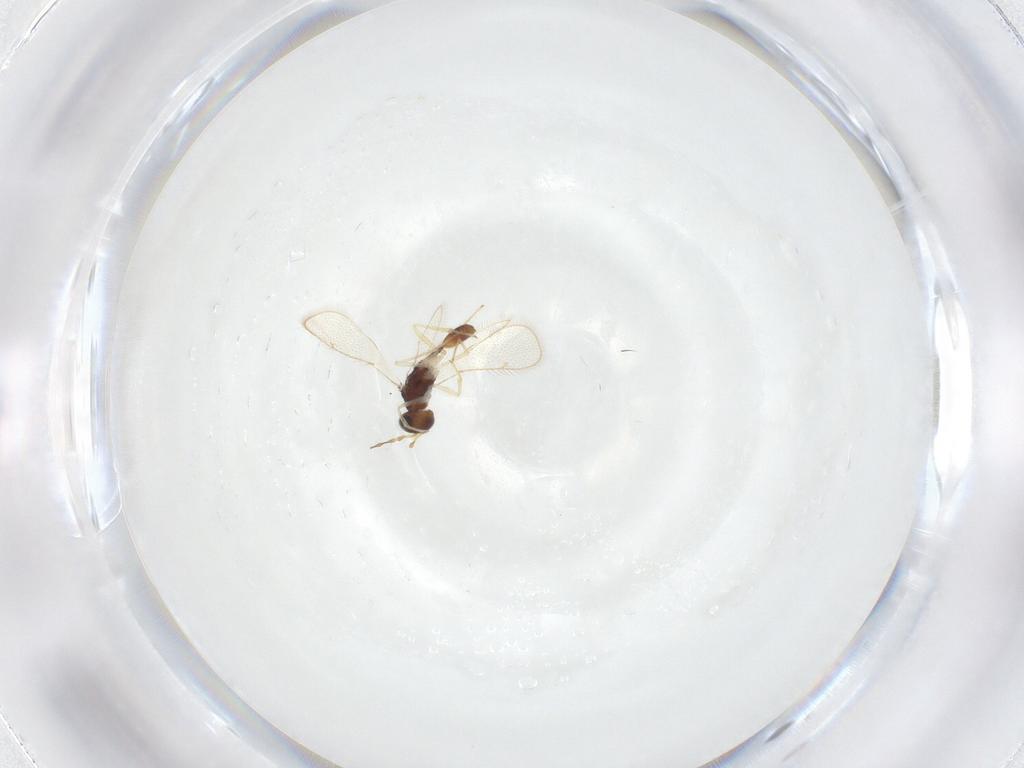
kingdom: Animalia
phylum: Arthropoda
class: Insecta
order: Hymenoptera
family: Diparidae
